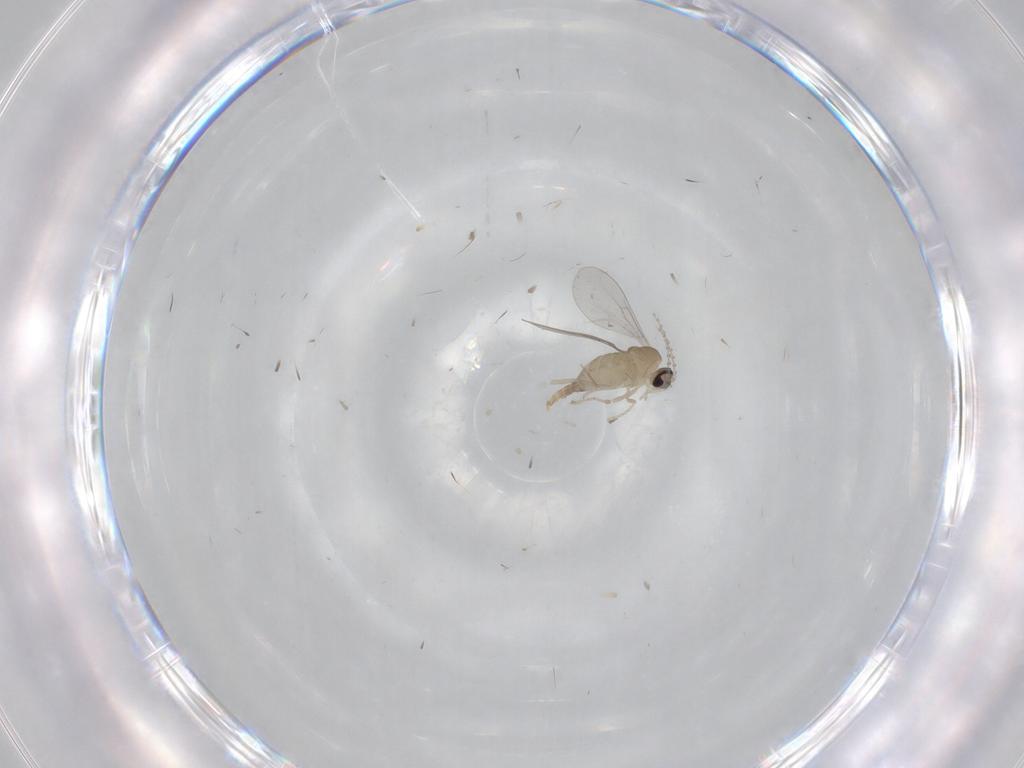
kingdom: Animalia
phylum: Arthropoda
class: Insecta
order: Diptera
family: Cecidomyiidae
